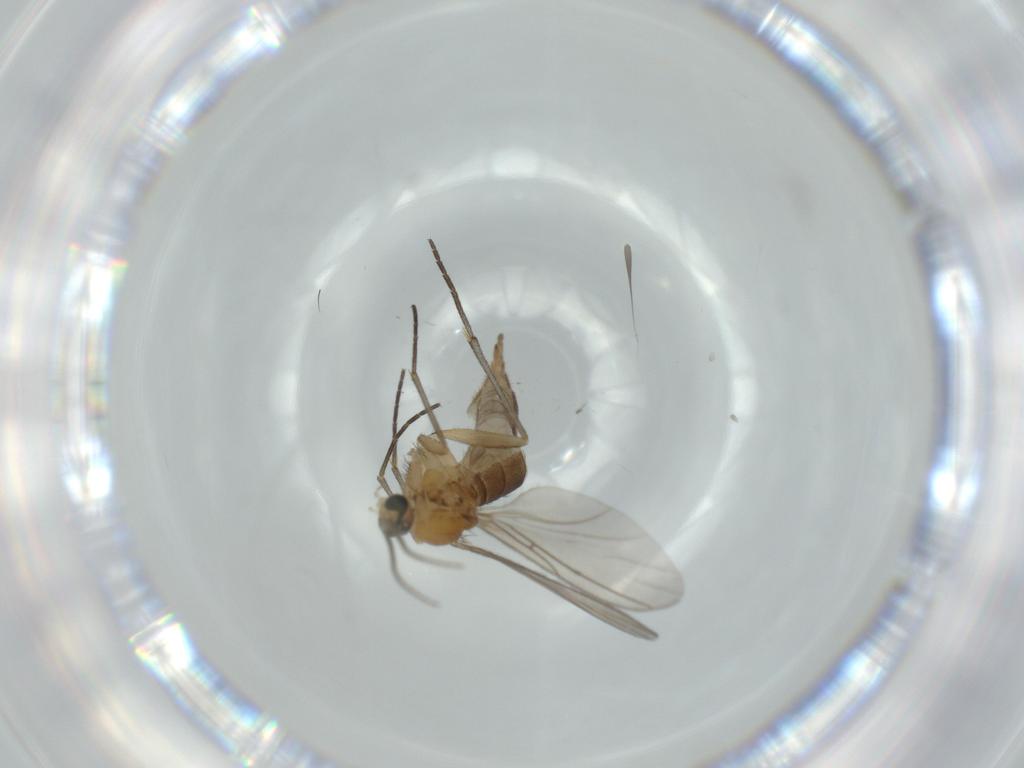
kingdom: Animalia
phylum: Arthropoda
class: Insecta
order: Diptera
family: Sciaridae
